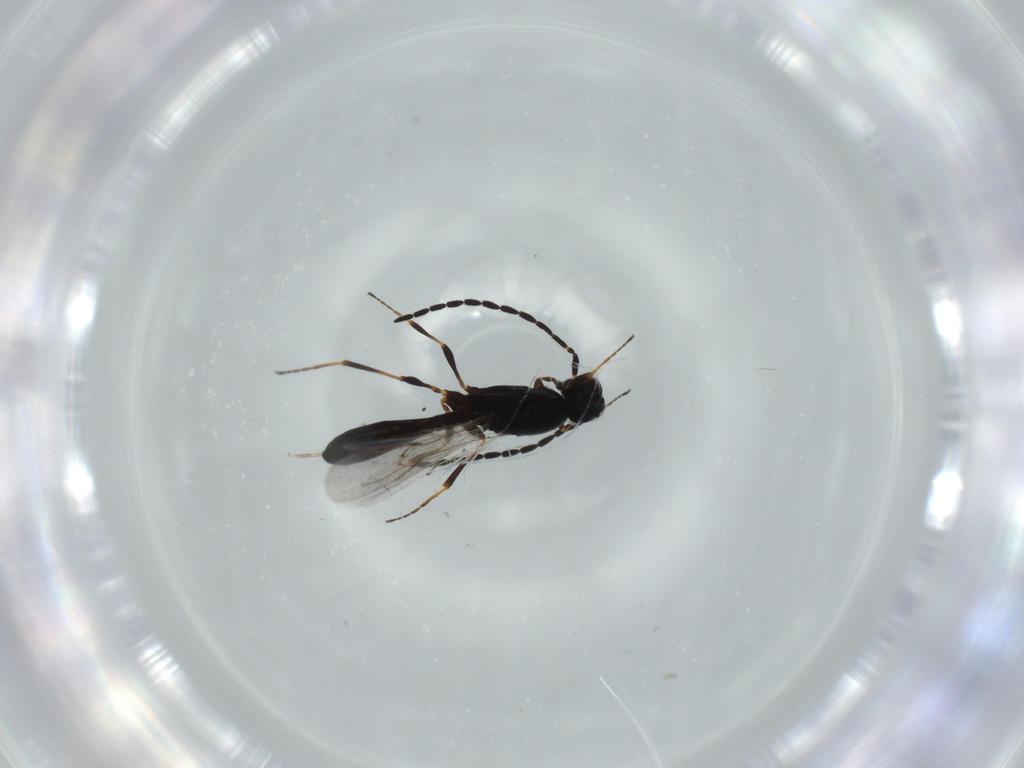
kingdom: Animalia
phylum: Arthropoda
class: Insecta
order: Hymenoptera
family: Scelionidae
